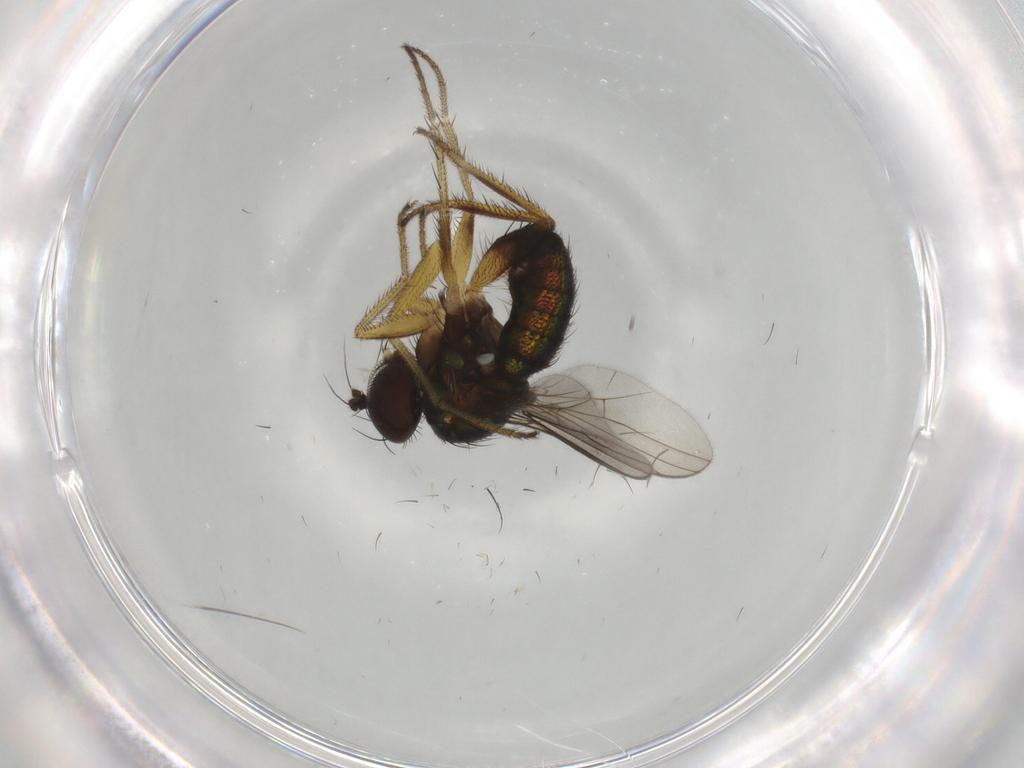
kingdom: Animalia
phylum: Arthropoda
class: Insecta
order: Diptera
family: Dolichopodidae
